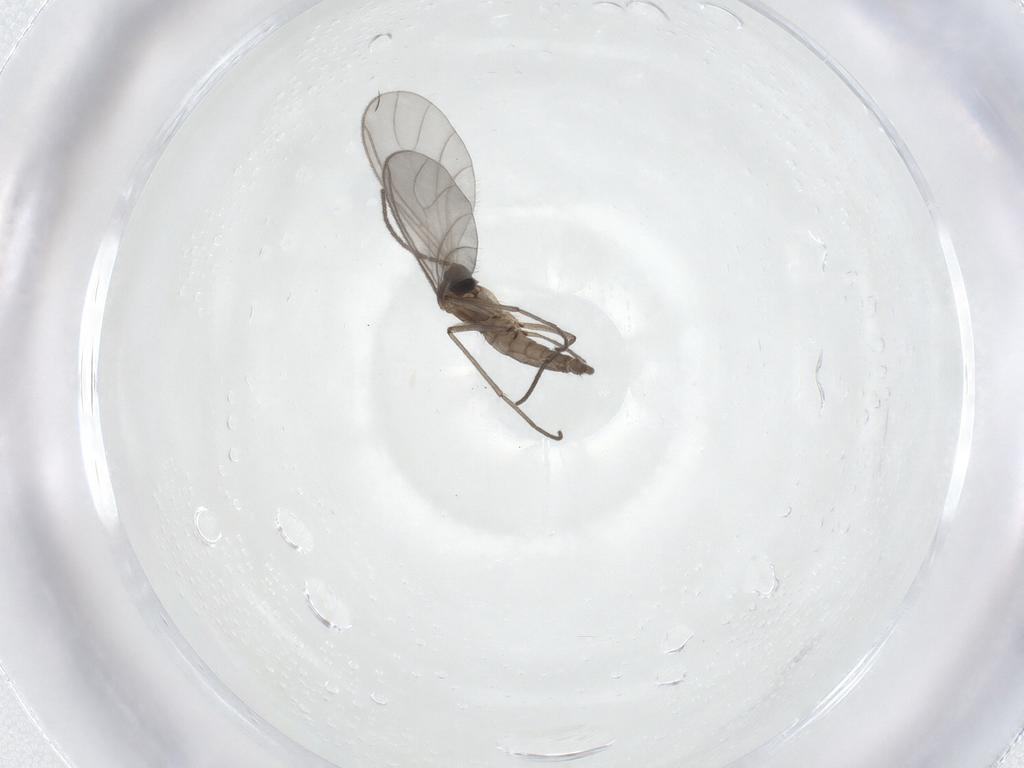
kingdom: Animalia
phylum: Arthropoda
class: Insecta
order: Diptera
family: Sciaridae
